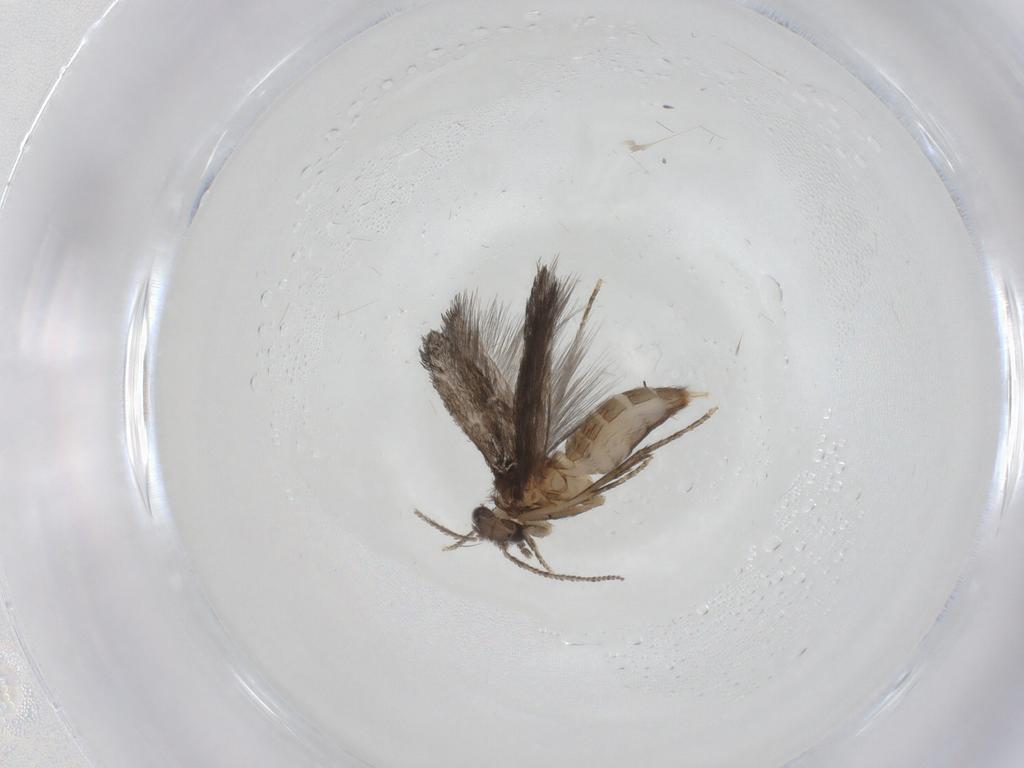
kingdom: Animalia
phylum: Arthropoda
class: Insecta
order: Trichoptera
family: Hydroptilidae
